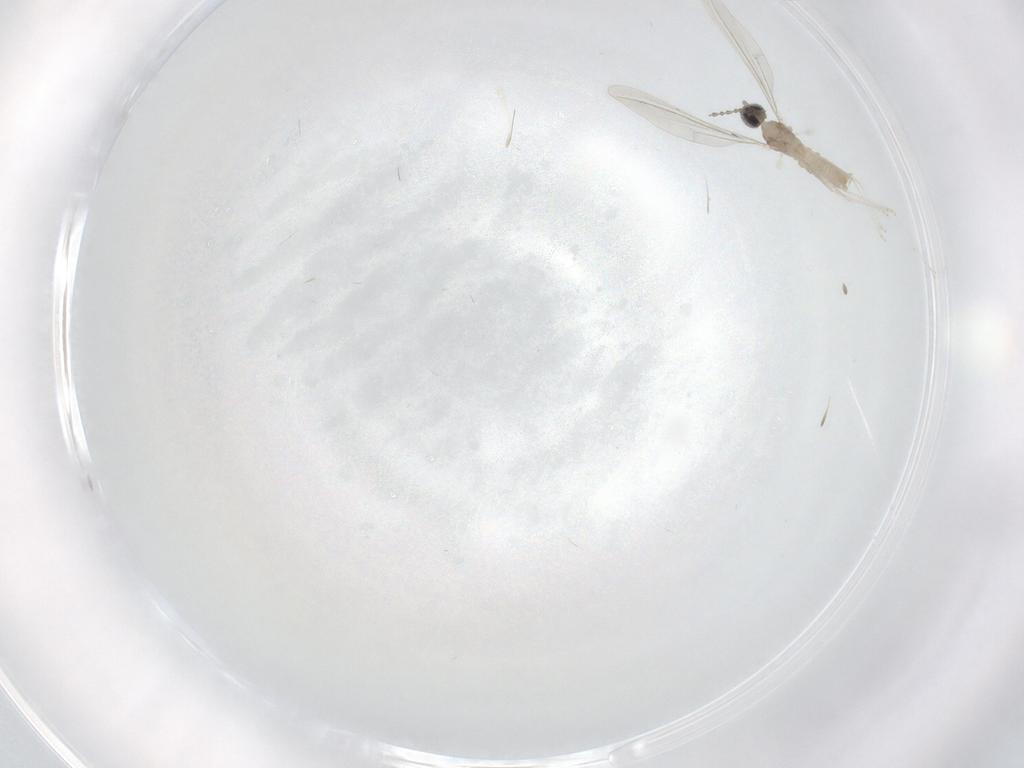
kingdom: Animalia
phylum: Arthropoda
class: Insecta
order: Diptera
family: Cecidomyiidae
